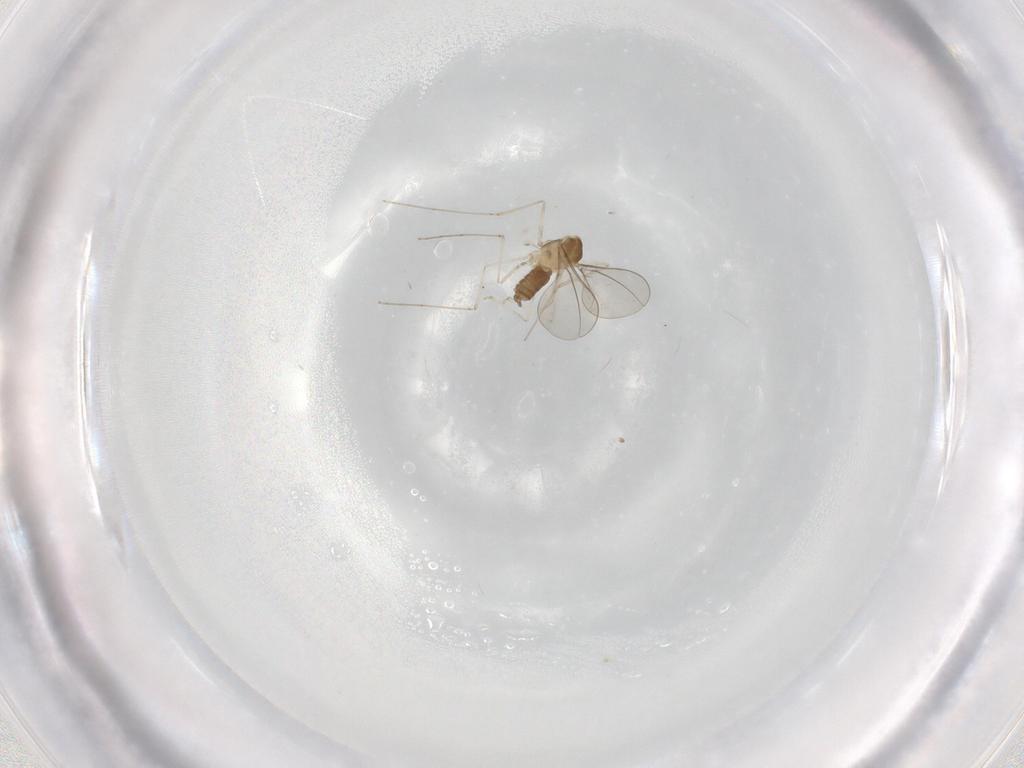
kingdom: Animalia
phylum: Arthropoda
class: Insecta
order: Diptera
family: Cecidomyiidae
